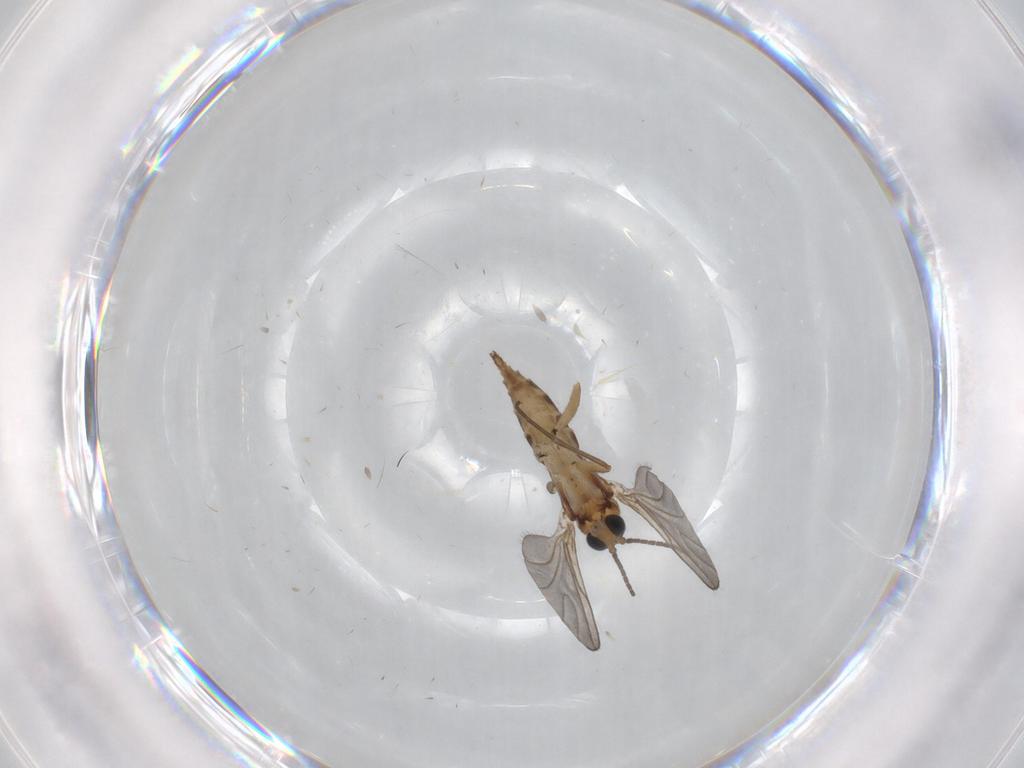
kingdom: Animalia
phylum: Arthropoda
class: Insecta
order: Diptera
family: Sciaridae
